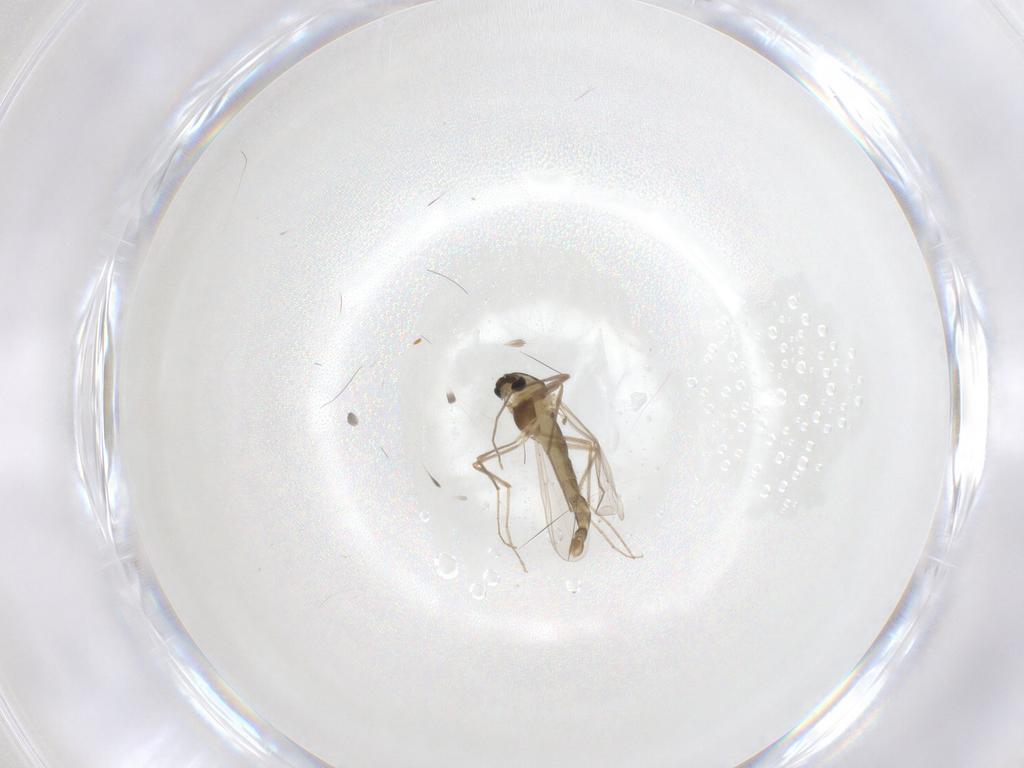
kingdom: Animalia
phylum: Arthropoda
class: Insecta
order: Diptera
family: Chironomidae
